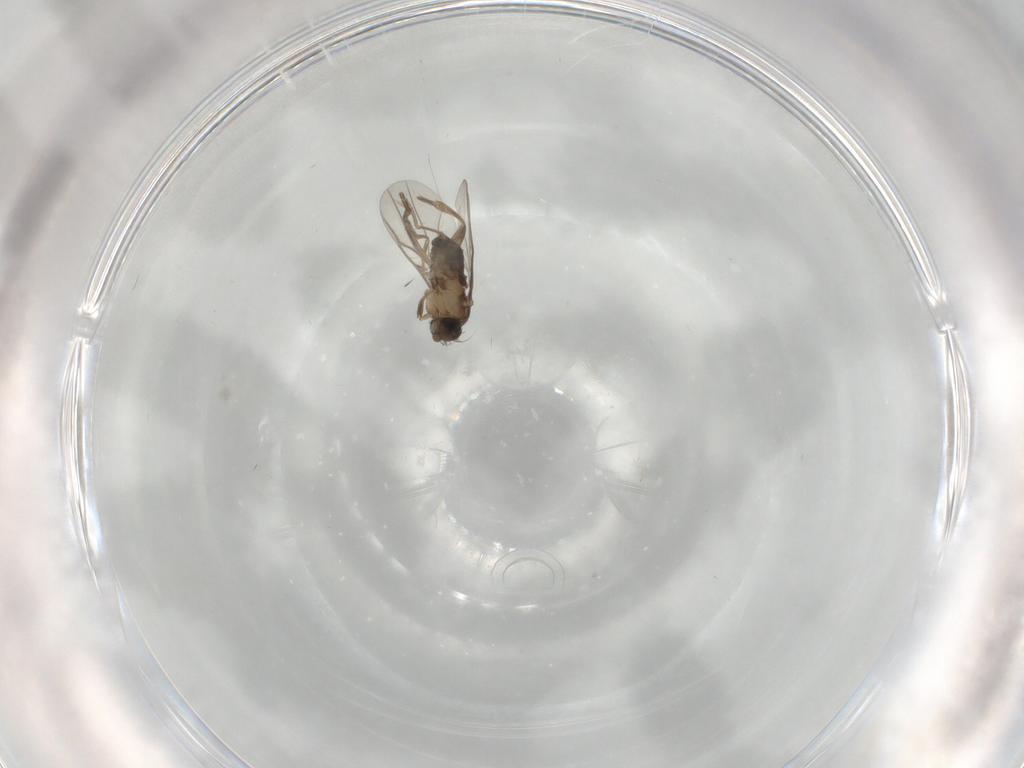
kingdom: Animalia
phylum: Arthropoda
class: Insecta
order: Diptera
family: Phoridae
